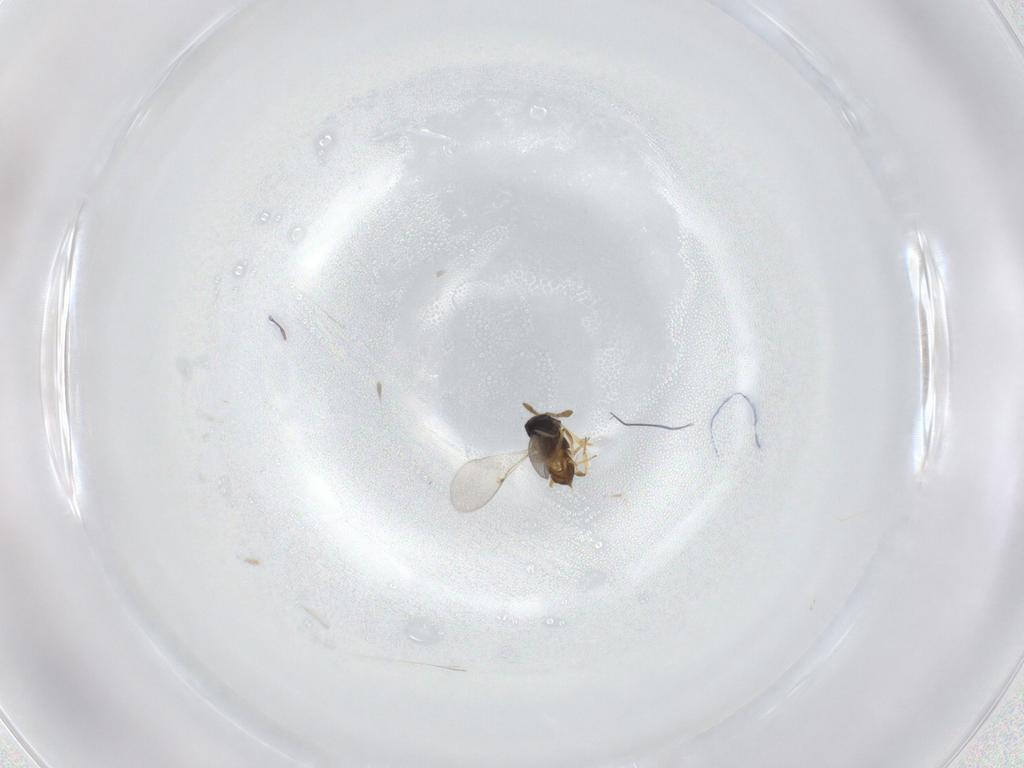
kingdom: Animalia
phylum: Arthropoda
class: Insecta
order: Hymenoptera
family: Encyrtidae
